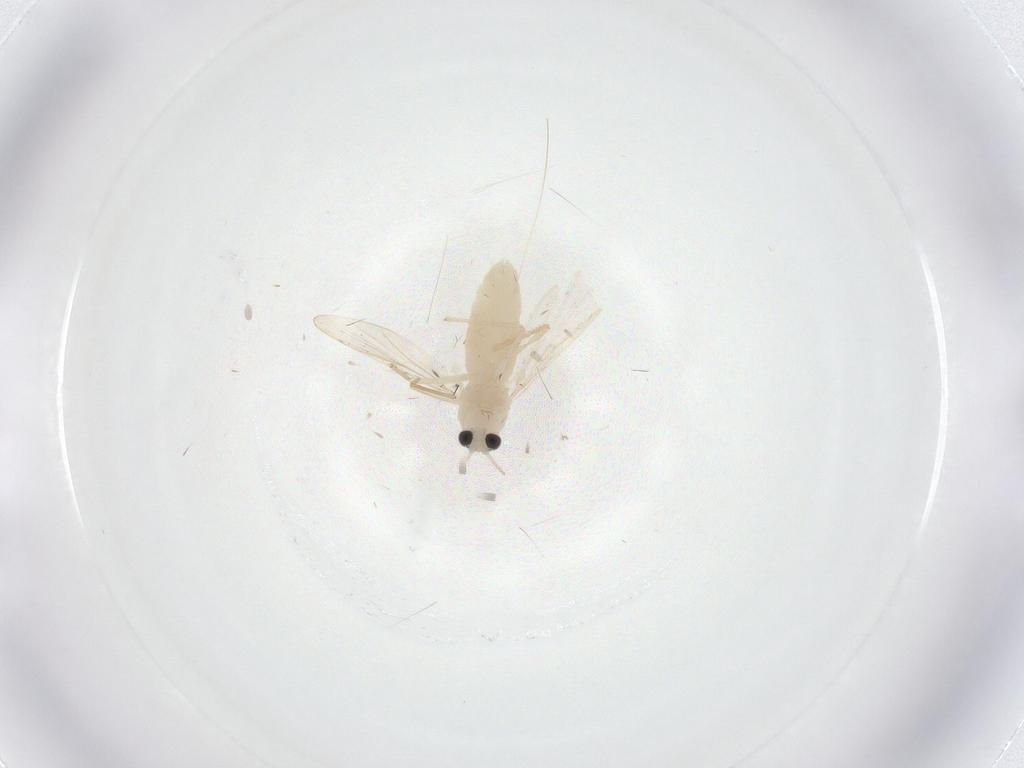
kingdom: Animalia
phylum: Arthropoda
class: Insecta
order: Diptera
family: Chironomidae
